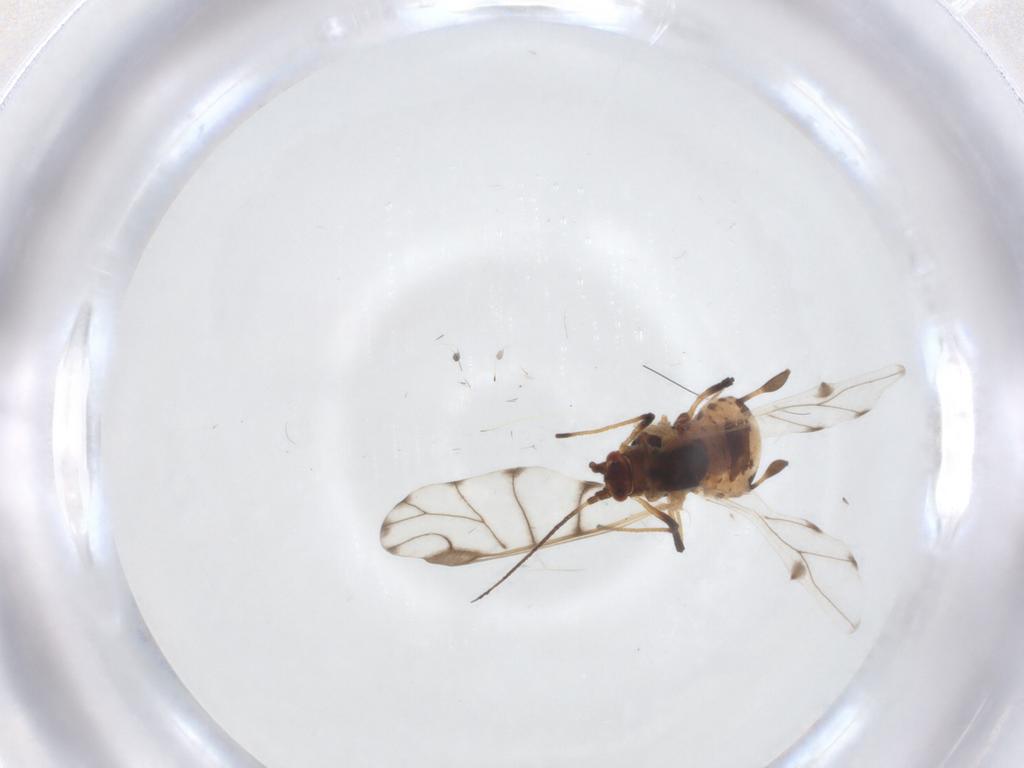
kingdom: Animalia
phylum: Arthropoda
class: Insecta
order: Hemiptera
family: Aphididae
